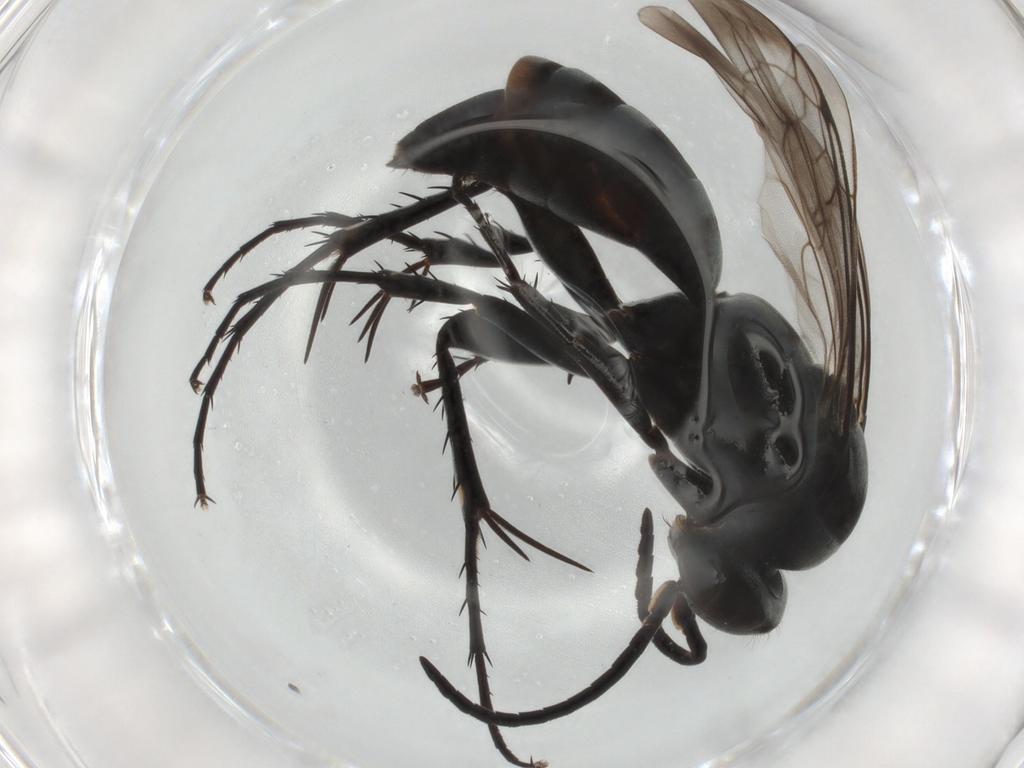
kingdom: Animalia
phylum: Arthropoda
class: Insecta
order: Hymenoptera
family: Pompilidae
